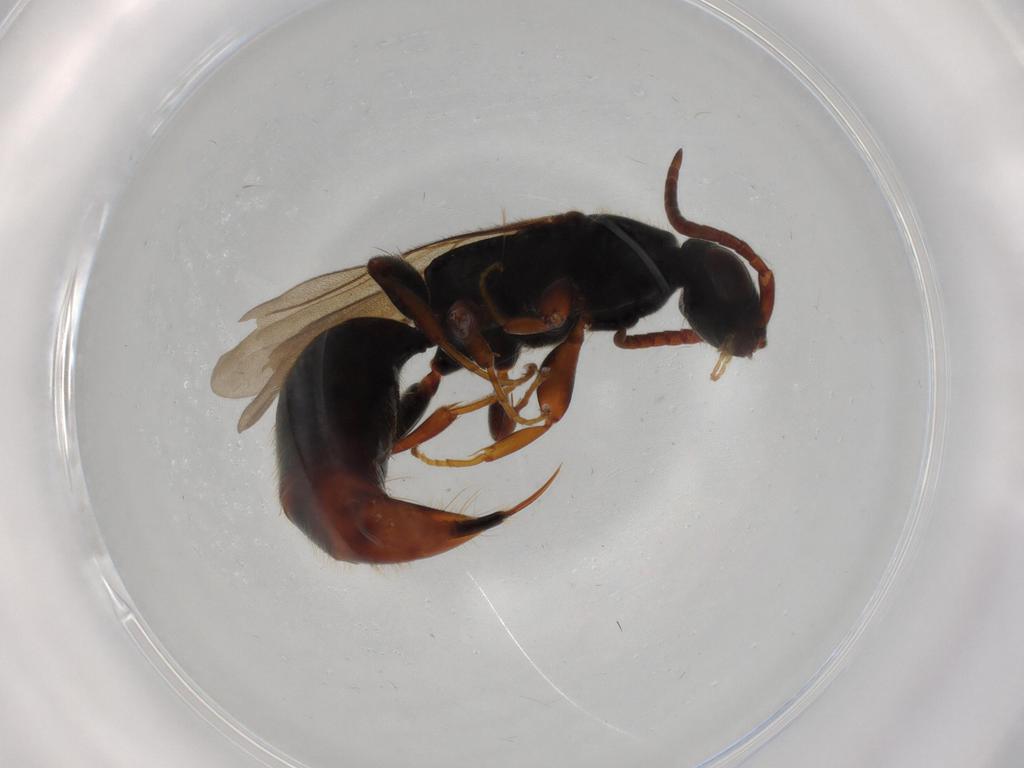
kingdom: Animalia
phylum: Arthropoda
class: Insecta
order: Hymenoptera
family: Bethylidae
